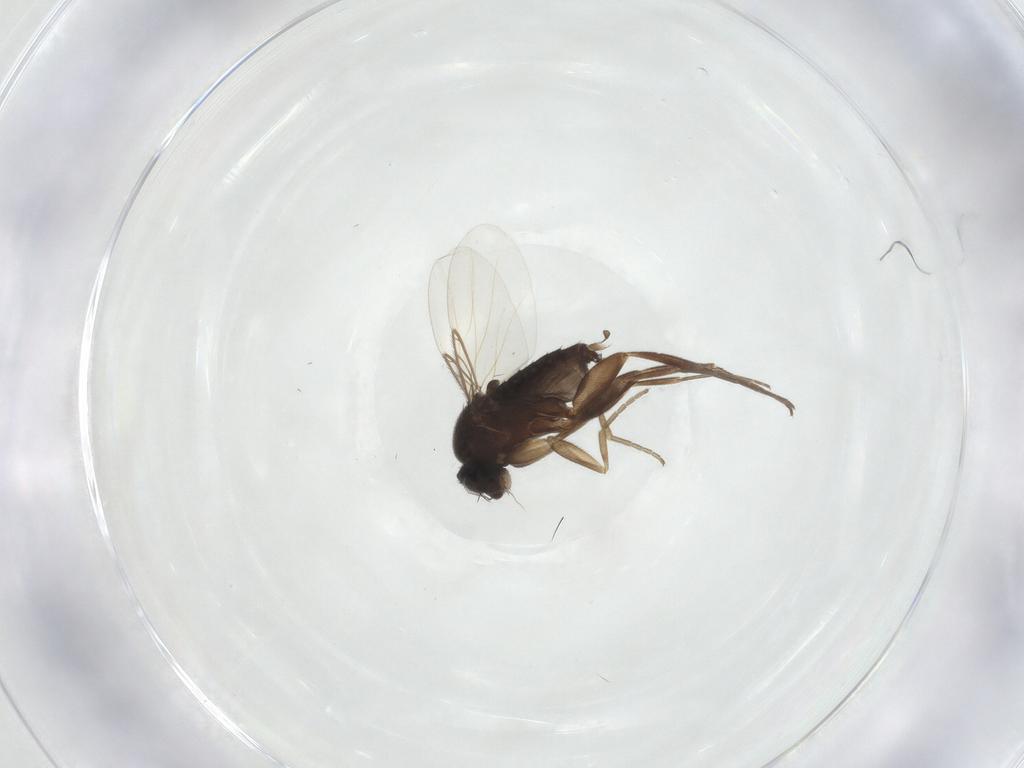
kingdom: Animalia
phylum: Arthropoda
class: Insecta
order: Diptera
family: Phoridae
